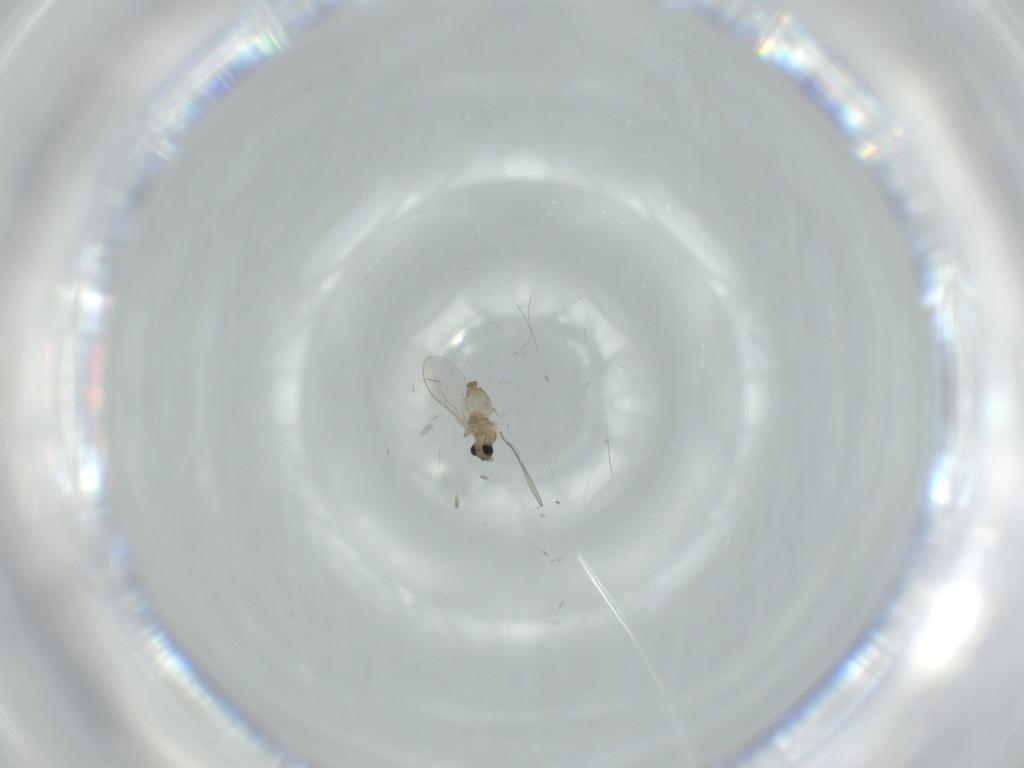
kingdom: Animalia
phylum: Arthropoda
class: Insecta
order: Diptera
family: Cecidomyiidae
